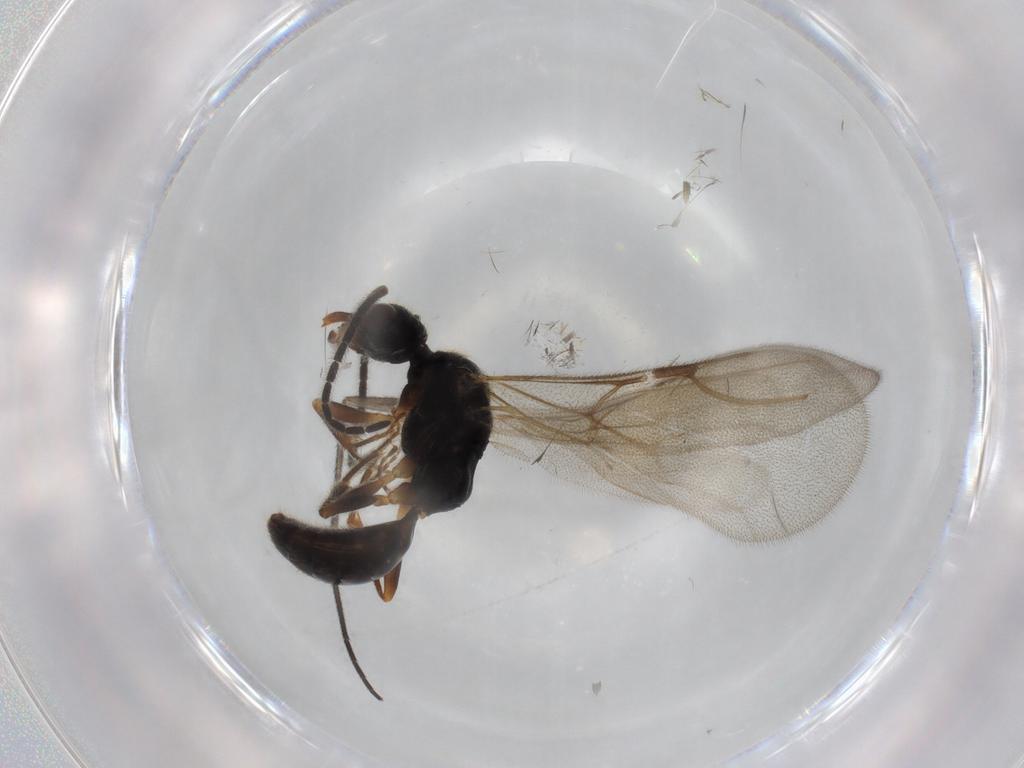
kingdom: Animalia
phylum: Arthropoda
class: Insecta
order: Hymenoptera
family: Bethylidae
